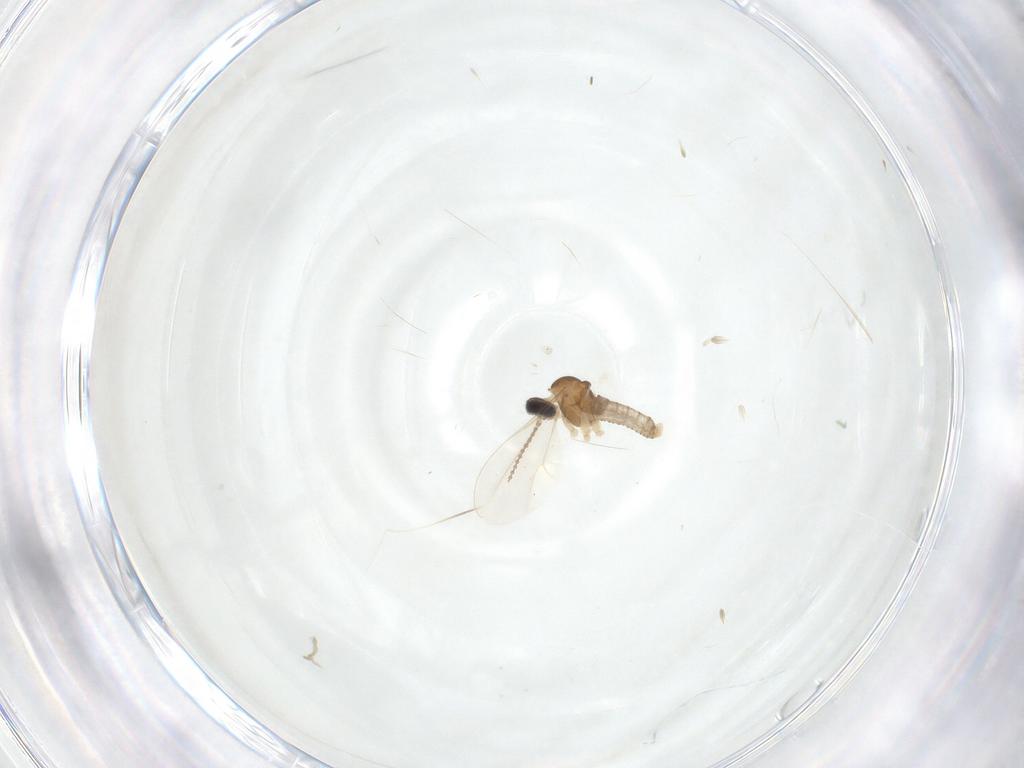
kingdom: Animalia
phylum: Arthropoda
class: Insecta
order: Diptera
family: Cecidomyiidae
